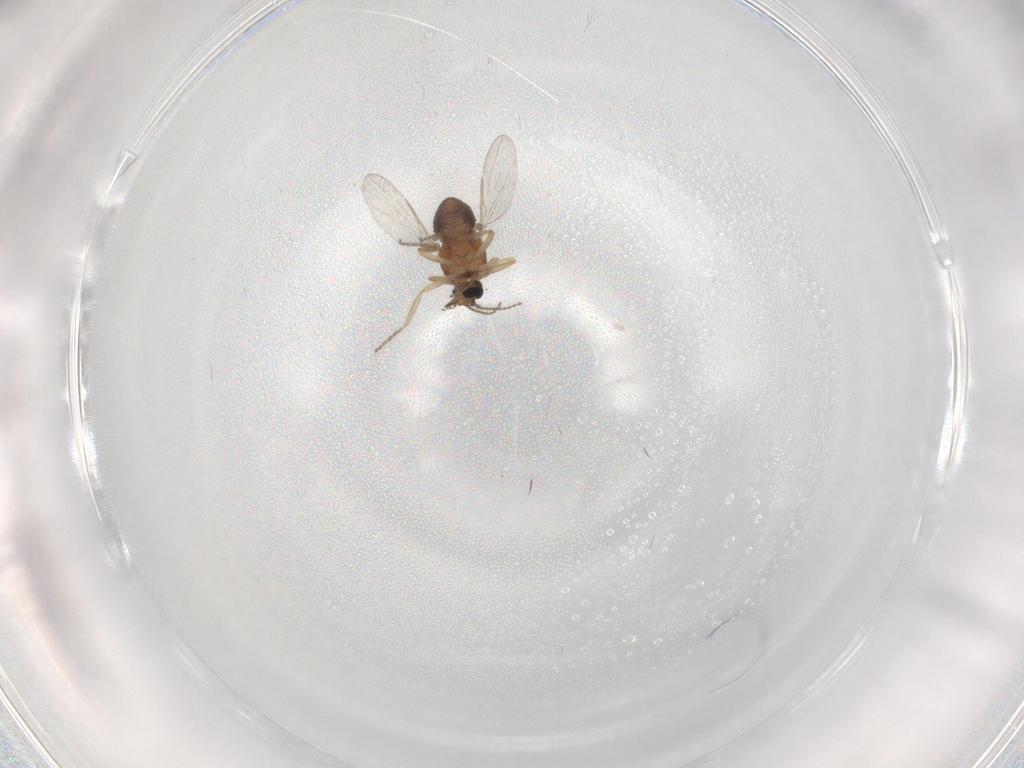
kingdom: Animalia
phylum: Arthropoda
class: Insecta
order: Diptera
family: Ceratopogonidae
